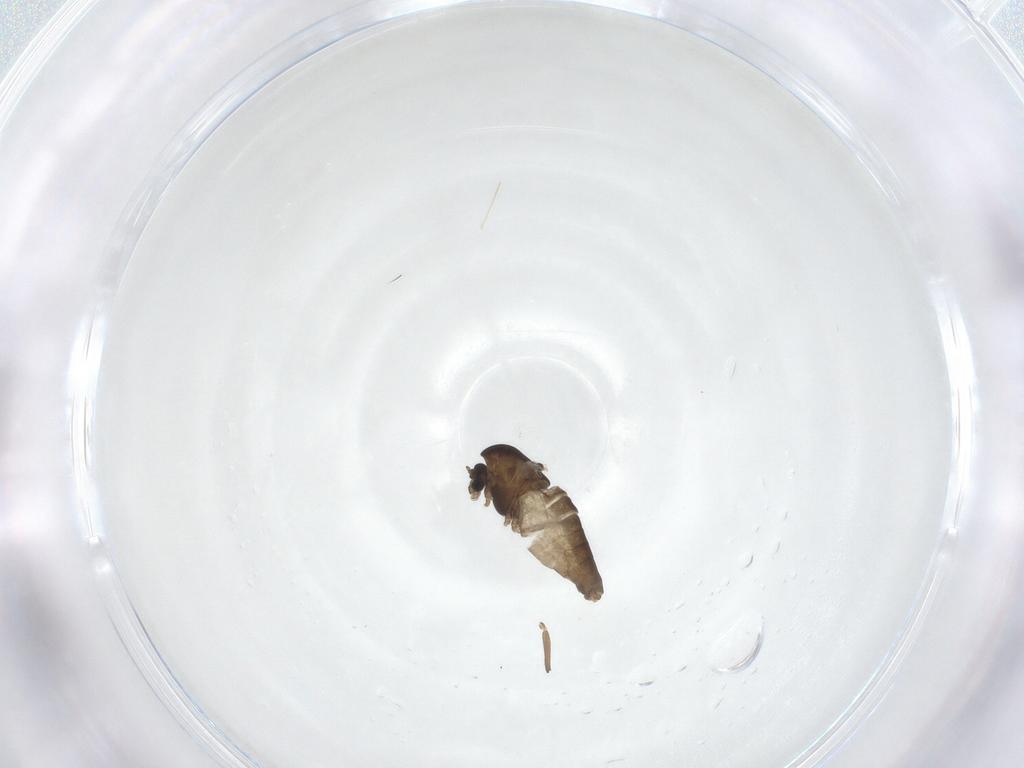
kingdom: Animalia
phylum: Arthropoda
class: Insecta
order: Diptera
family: Chironomidae
